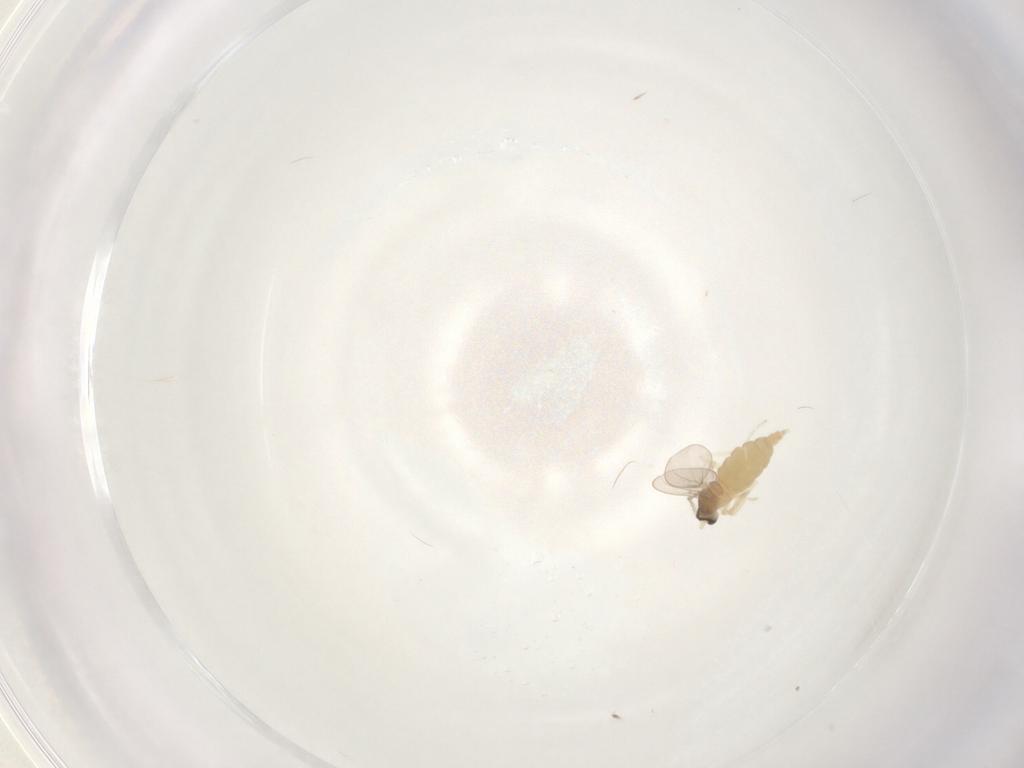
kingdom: Animalia
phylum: Arthropoda
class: Insecta
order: Diptera
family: Cecidomyiidae
